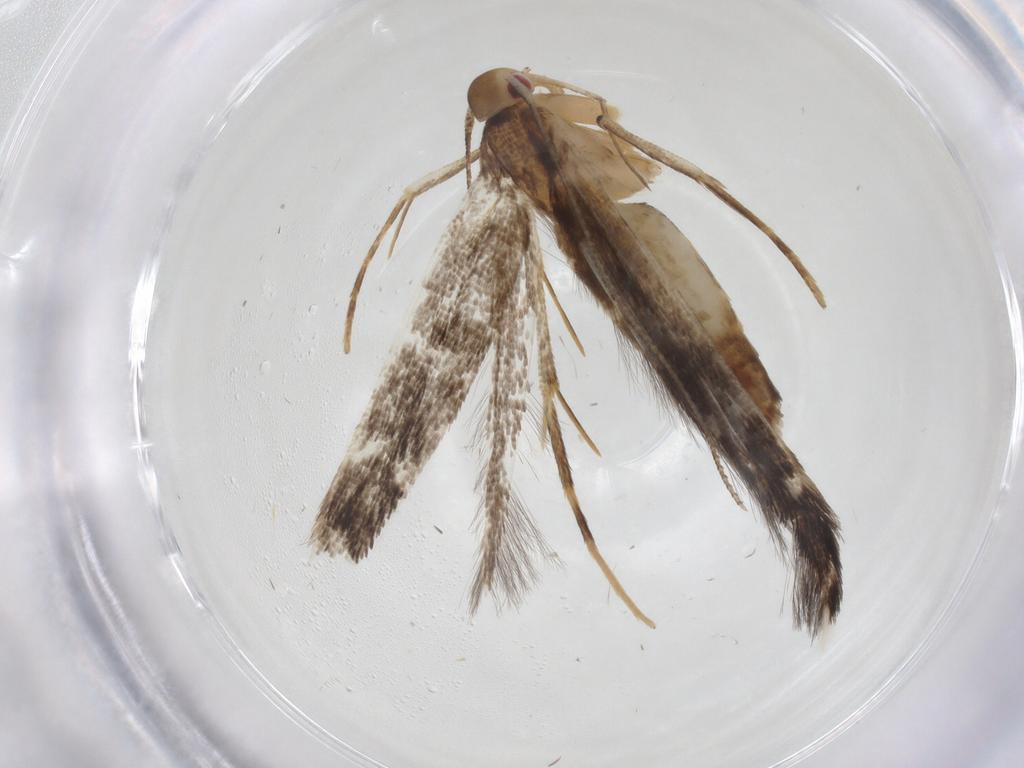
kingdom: Animalia
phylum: Arthropoda
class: Insecta
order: Lepidoptera
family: Cosmopterigidae
